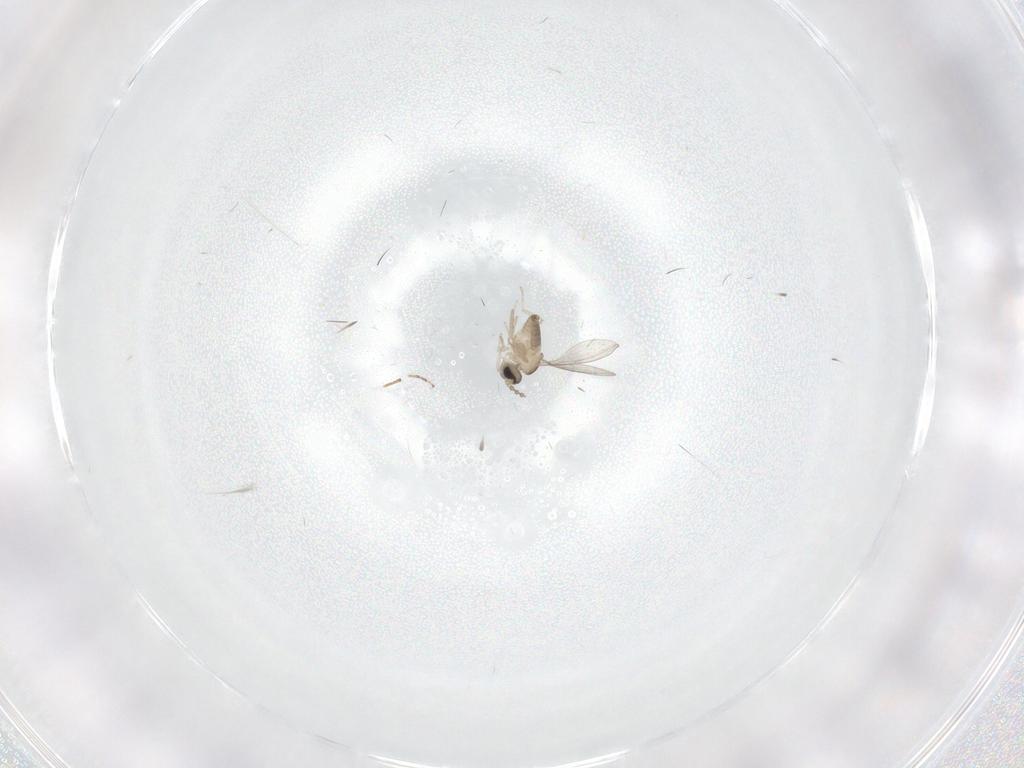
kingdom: Animalia
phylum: Arthropoda
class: Insecta
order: Diptera
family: Cecidomyiidae
